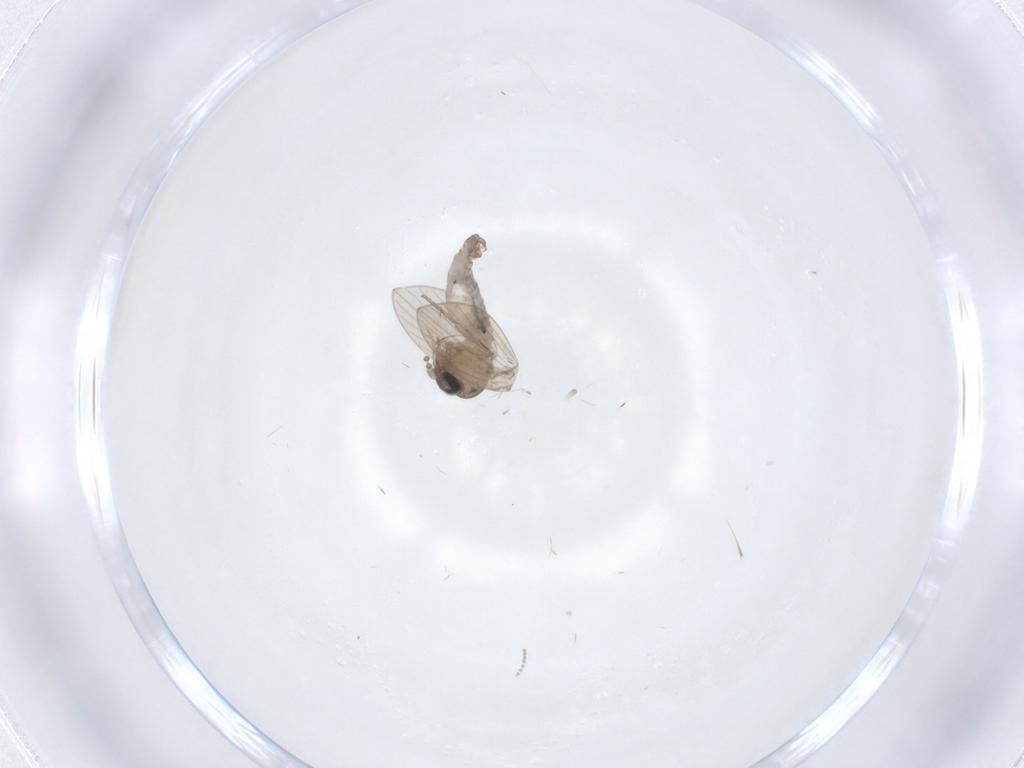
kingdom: Animalia
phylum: Arthropoda
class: Insecta
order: Diptera
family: Psychodidae
